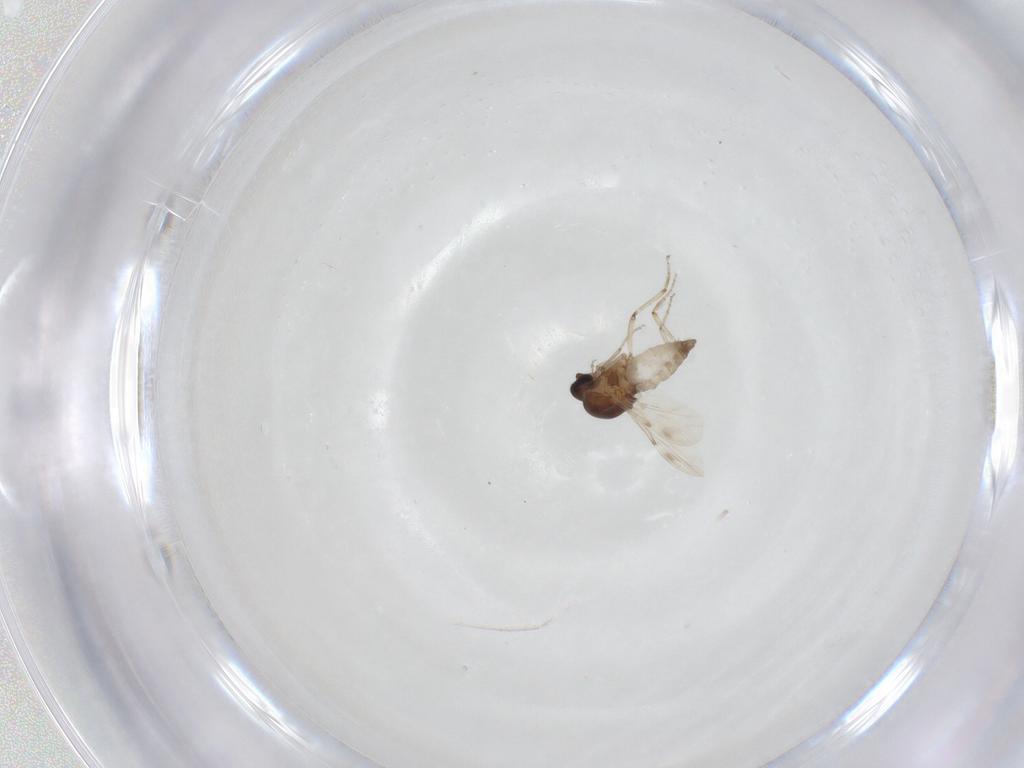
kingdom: Animalia
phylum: Arthropoda
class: Insecta
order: Diptera
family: Ceratopogonidae
